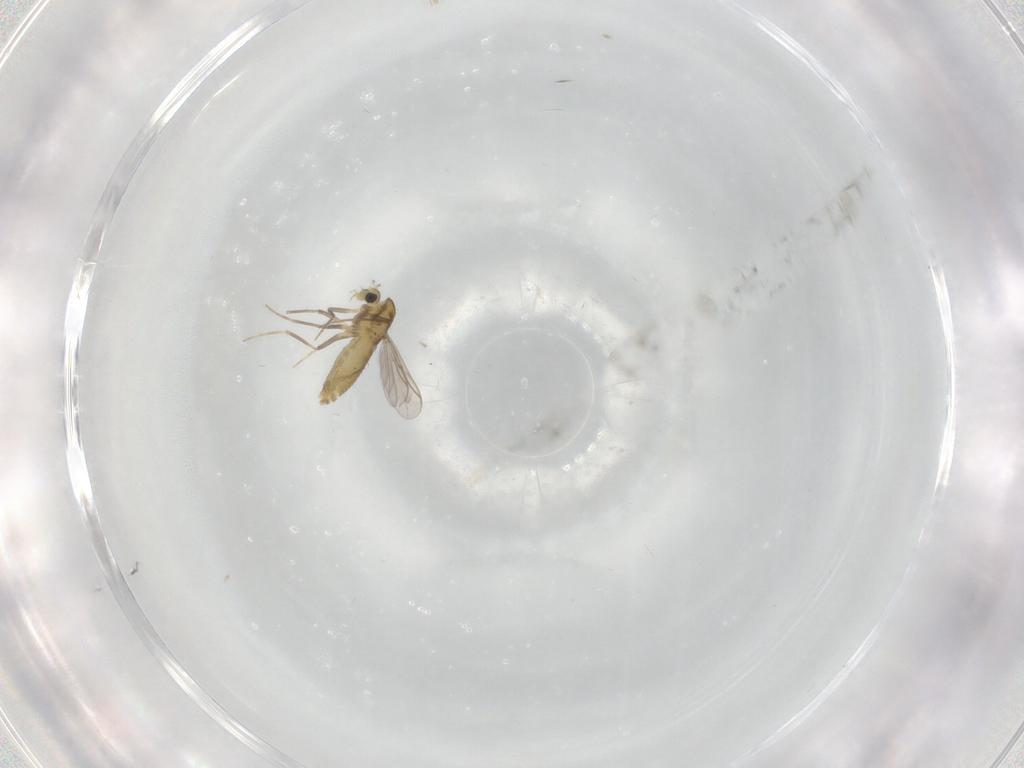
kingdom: Animalia
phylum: Arthropoda
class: Insecta
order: Diptera
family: Chironomidae
